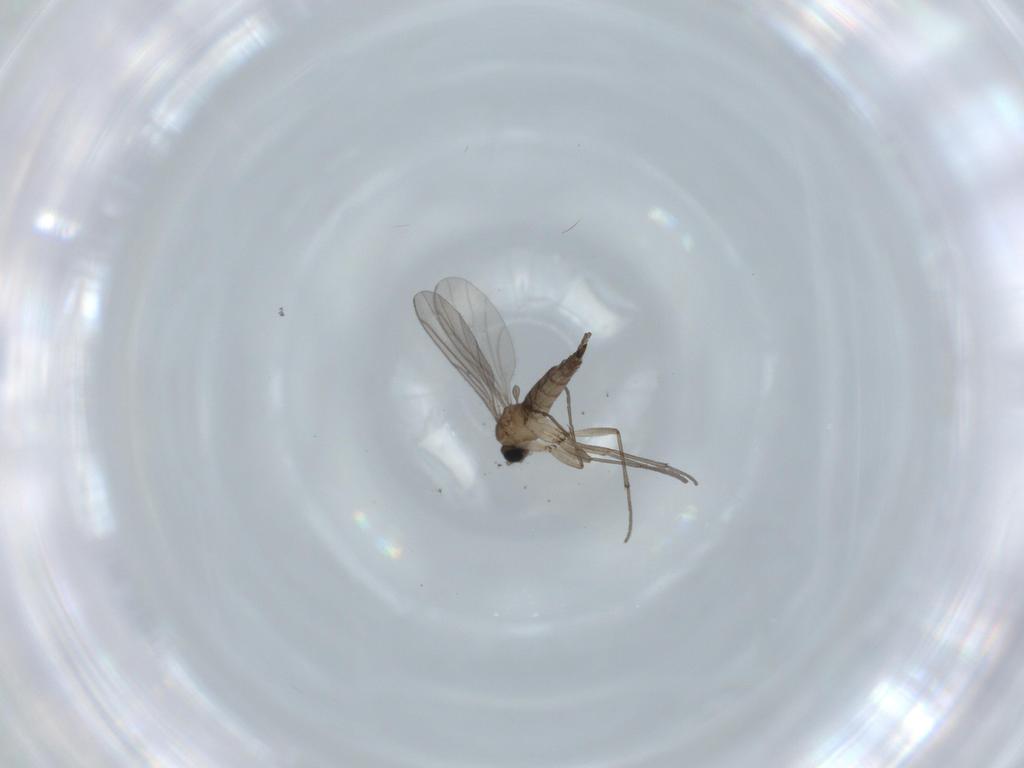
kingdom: Animalia
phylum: Arthropoda
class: Insecta
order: Diptera
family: Sciaridae
